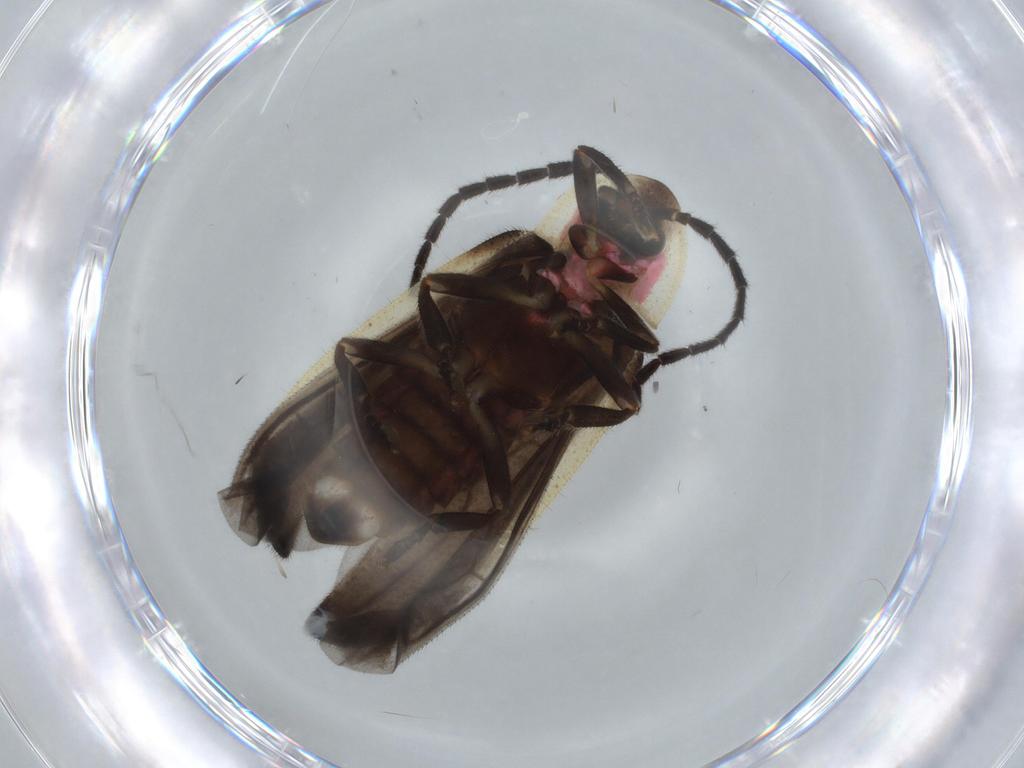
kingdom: Animalia
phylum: Arthropoda
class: Insecta
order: Coleoptera
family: Lampyridae
